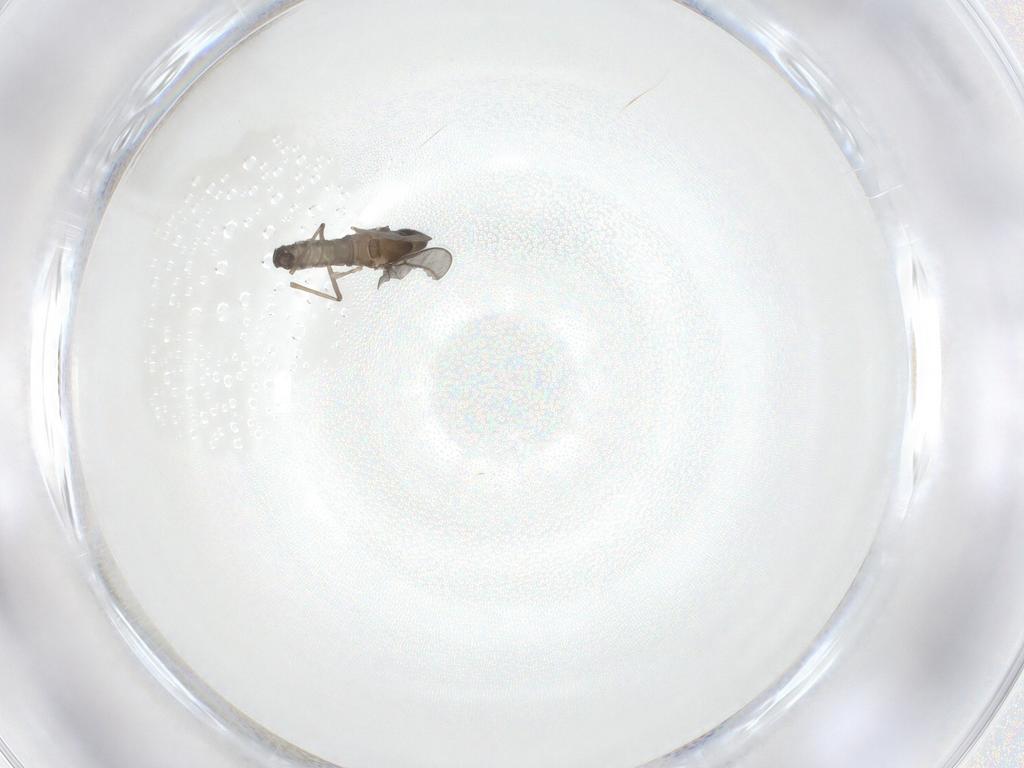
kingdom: Animalia
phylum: Arthropoda
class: Insecta
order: Diptera
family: Cecidomyiidae
